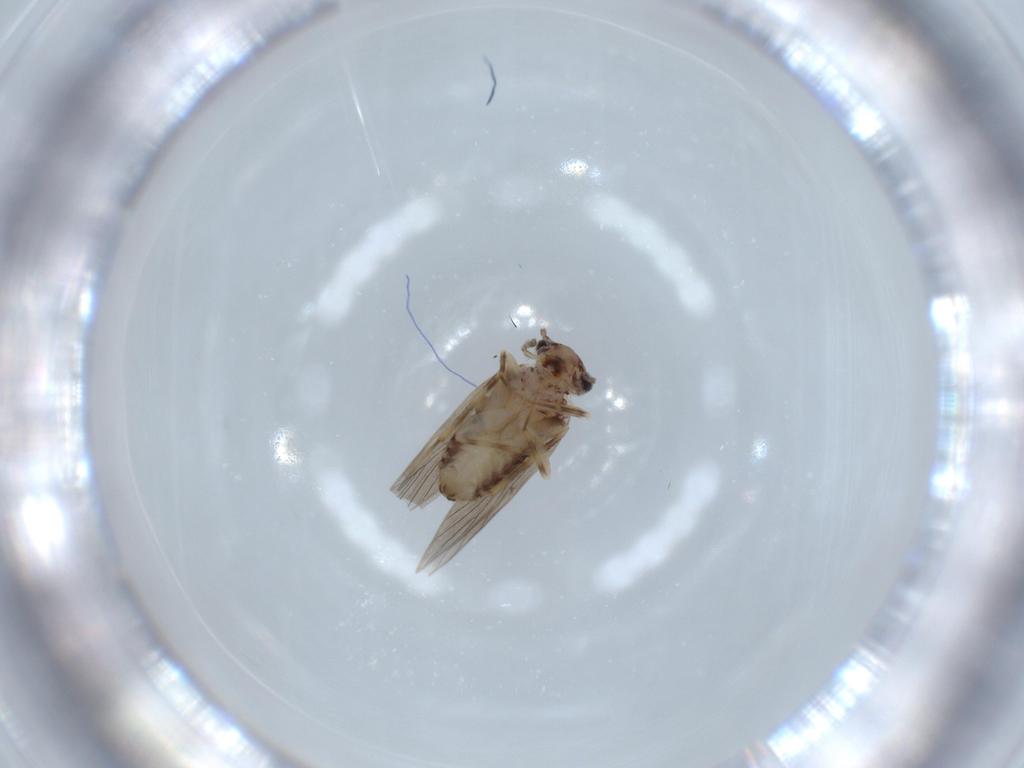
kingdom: Animalia
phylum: Arthropoda
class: Insecta
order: Psocodea
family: Lepidopsocidae
